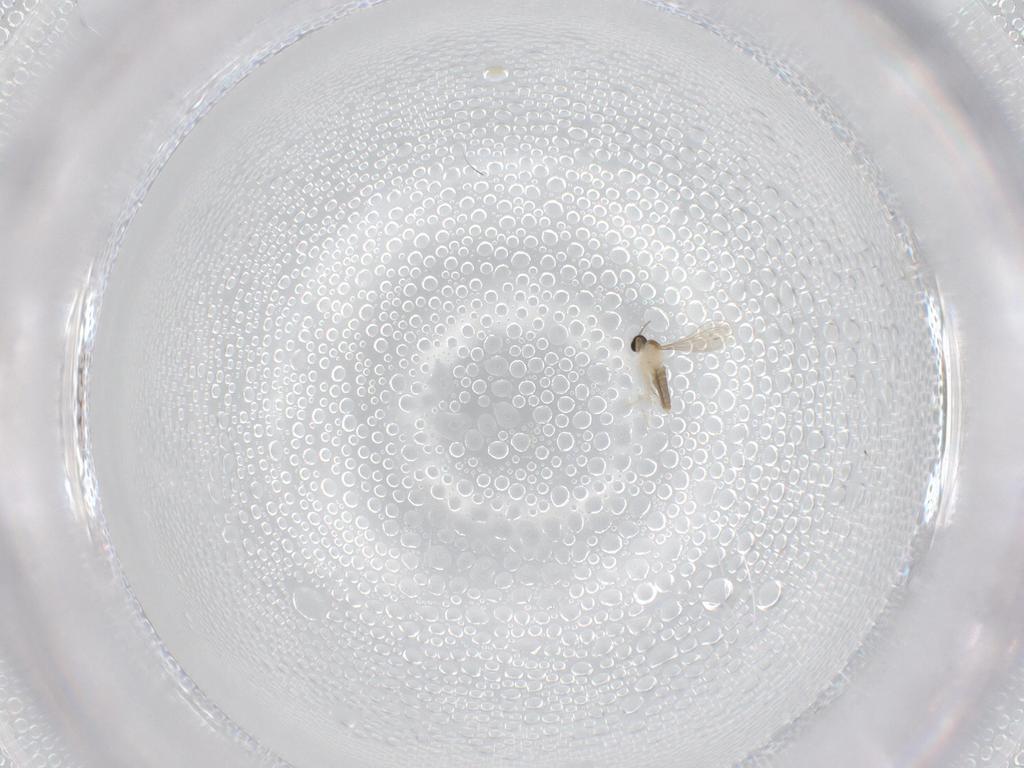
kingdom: Animalia
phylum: Arthropoda
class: Insecta
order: Diptera
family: Cecidomyiidae
